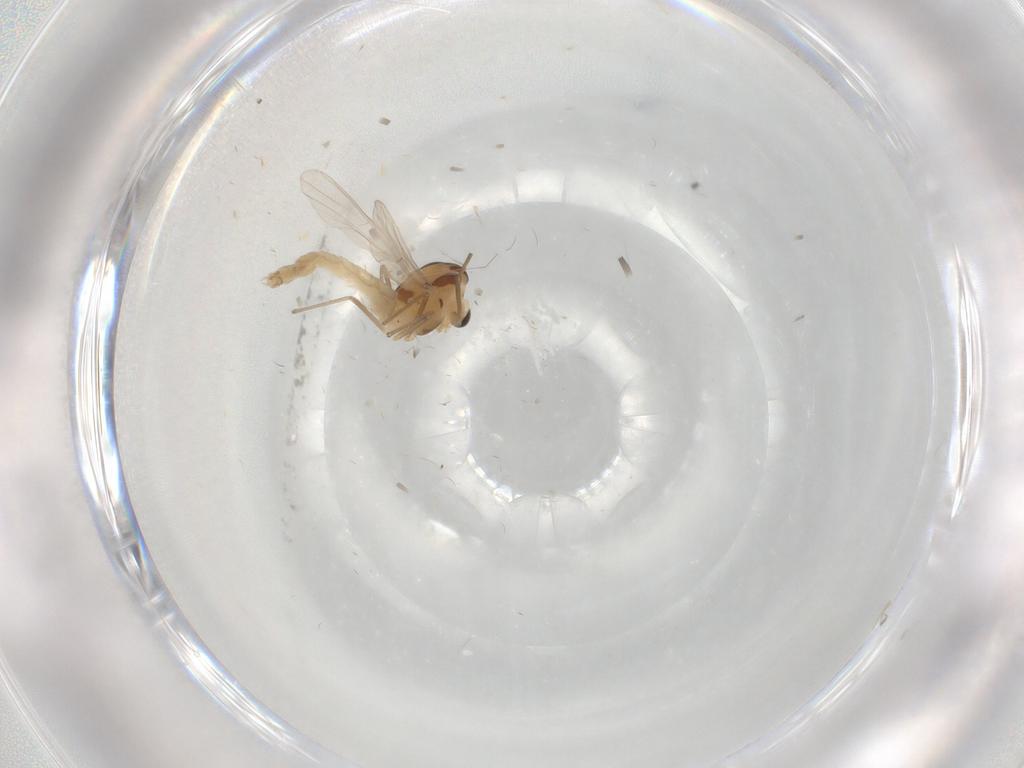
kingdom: Animalia
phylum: Arthropoda
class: Insecta
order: Diptera
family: Chironomidae
